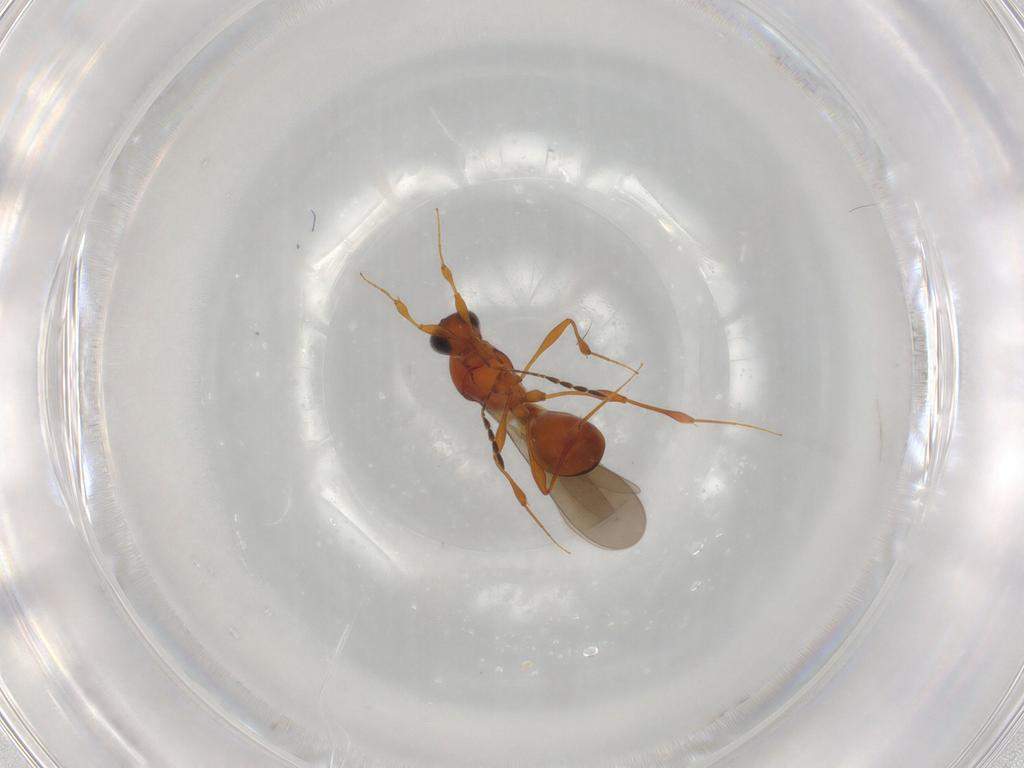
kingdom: Animalia
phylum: Arthropoda
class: Insecta
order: Hymenoptera
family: Platygastridae
